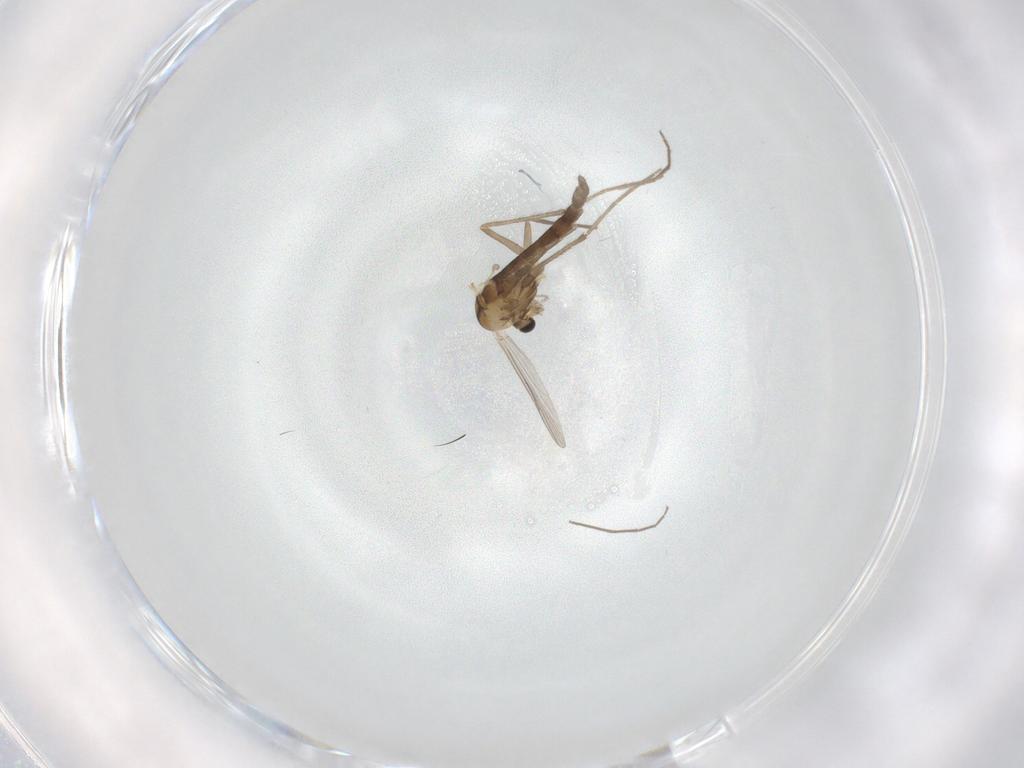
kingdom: Animalia
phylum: Arthropoda
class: Insecta
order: Diptera
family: Chironomidae
